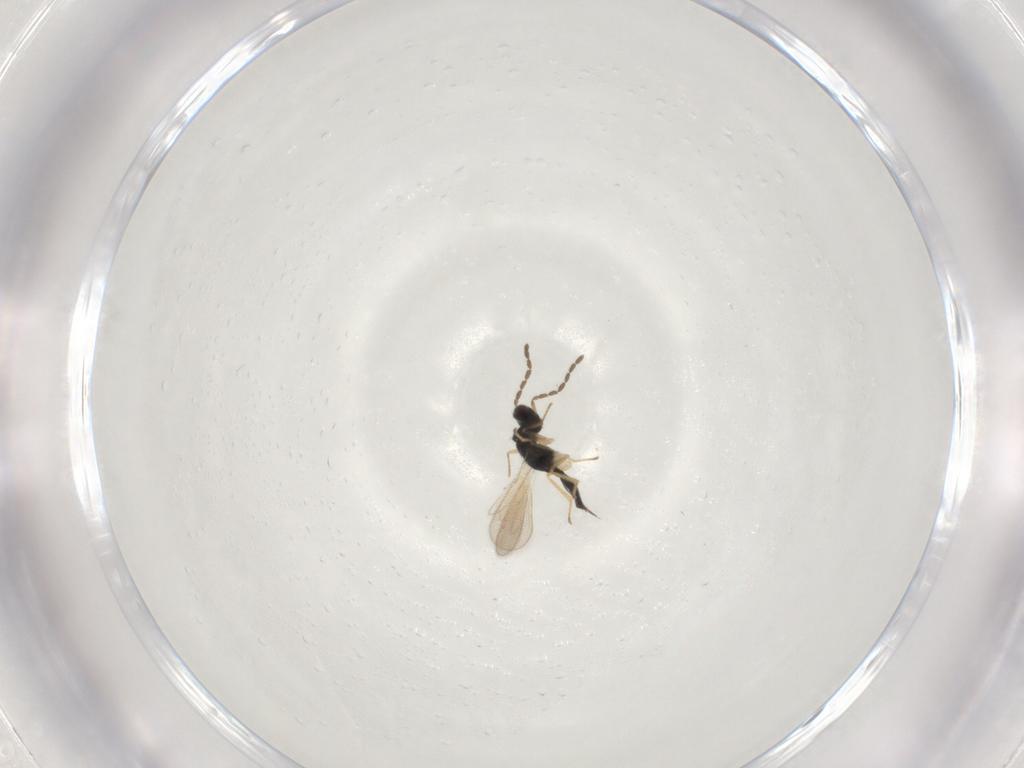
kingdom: Animalia
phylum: Arthropoda
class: Insecta
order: Hymenoptera
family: Eulophidae
